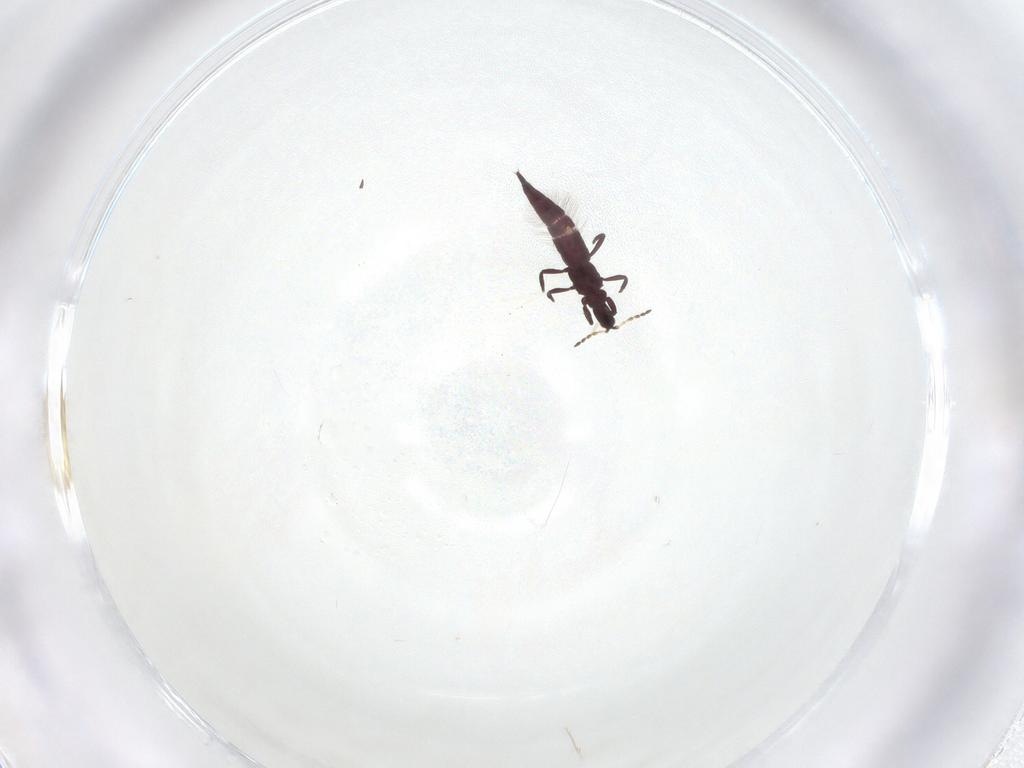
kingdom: Animalia
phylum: Arthropoda
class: Insecta
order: Thysanoptera
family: Phlaeothripidae
